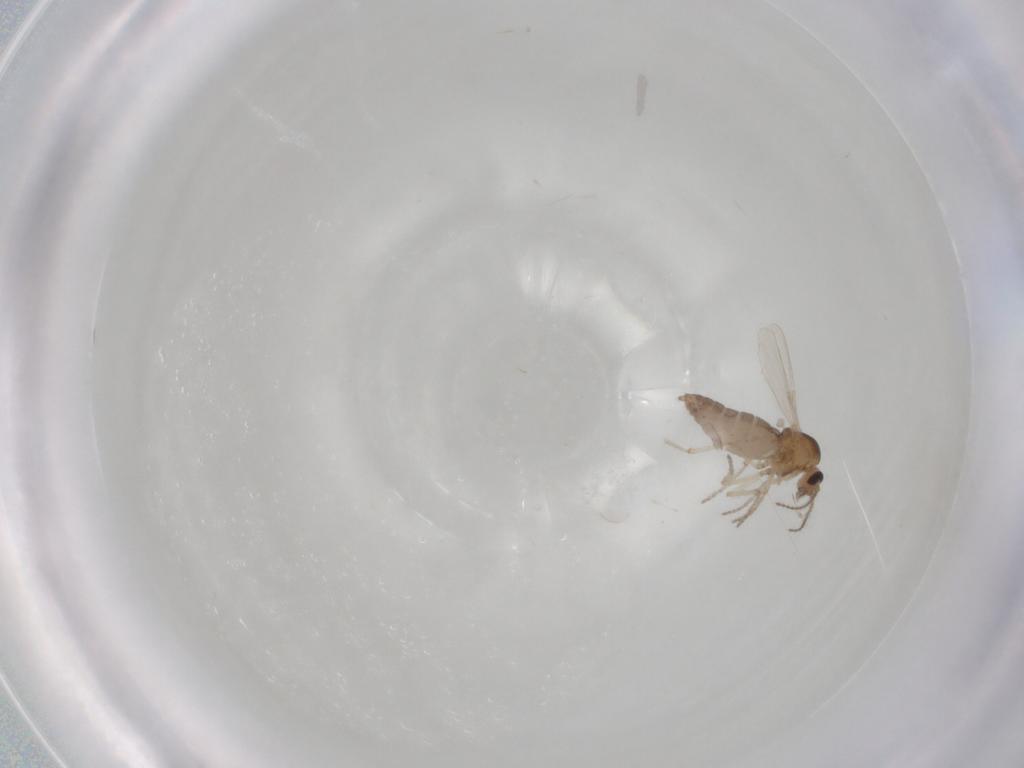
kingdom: Animalia
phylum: Arthropoda
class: Insecta
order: Diptera
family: Ceratopogonidae
